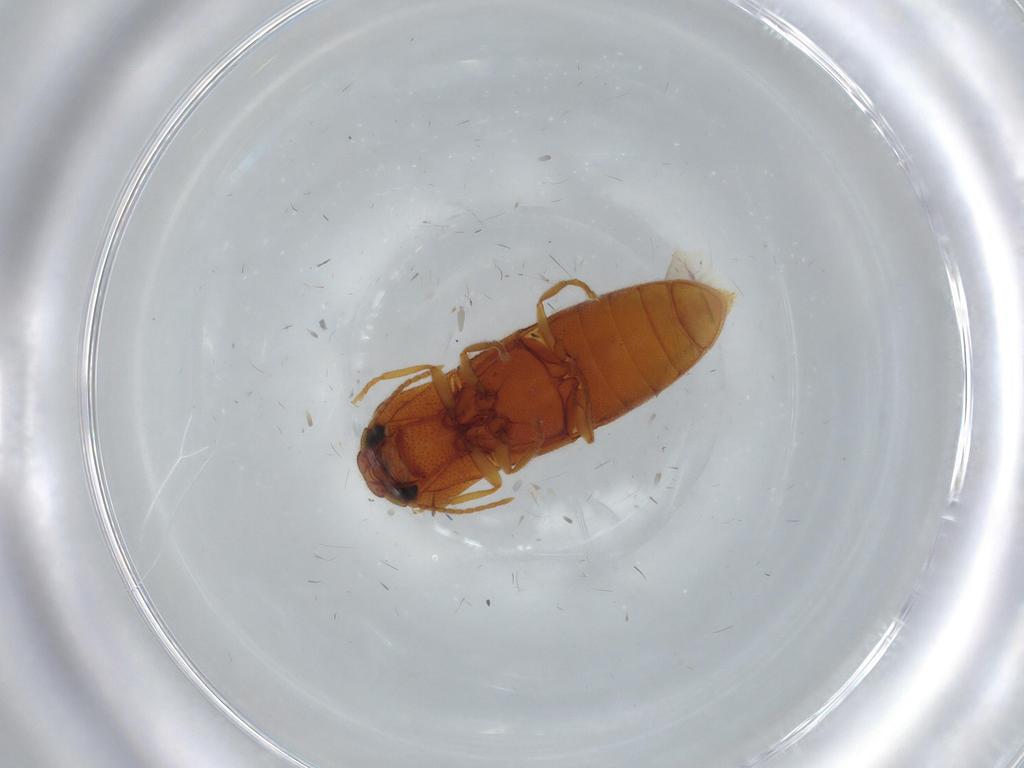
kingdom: Animalia
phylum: Arthropoda
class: Insecta
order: Coleoptera
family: Elateridae
